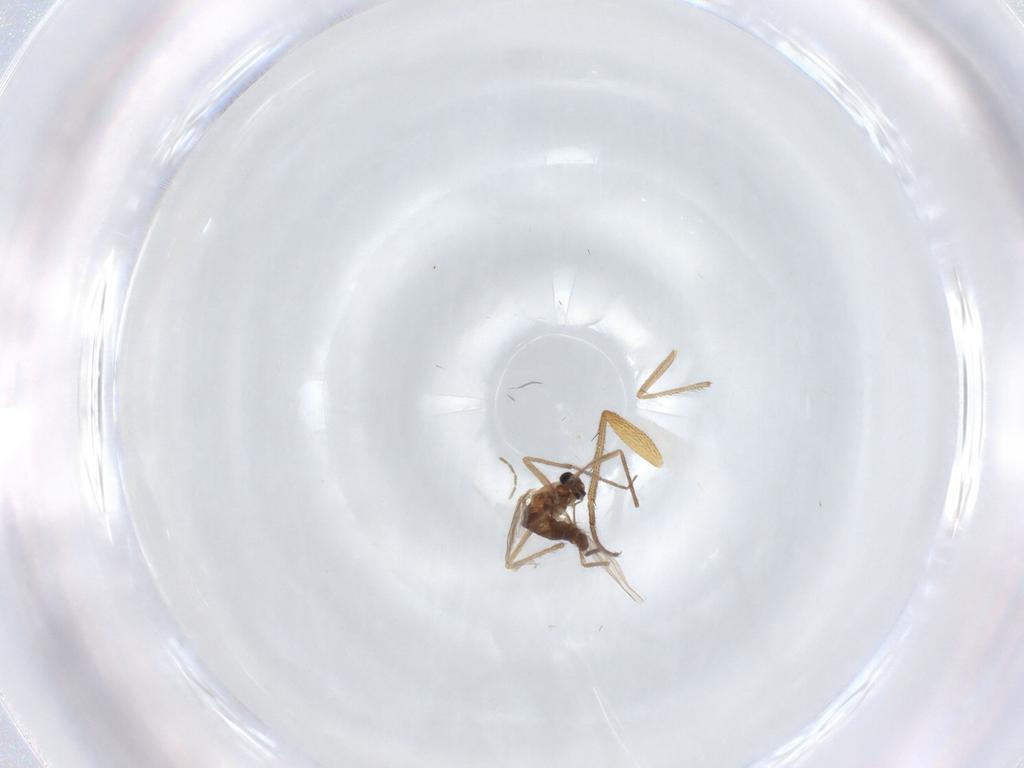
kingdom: Animalia
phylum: Arthropoda
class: Insecta
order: Diptera
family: Chironomidae
